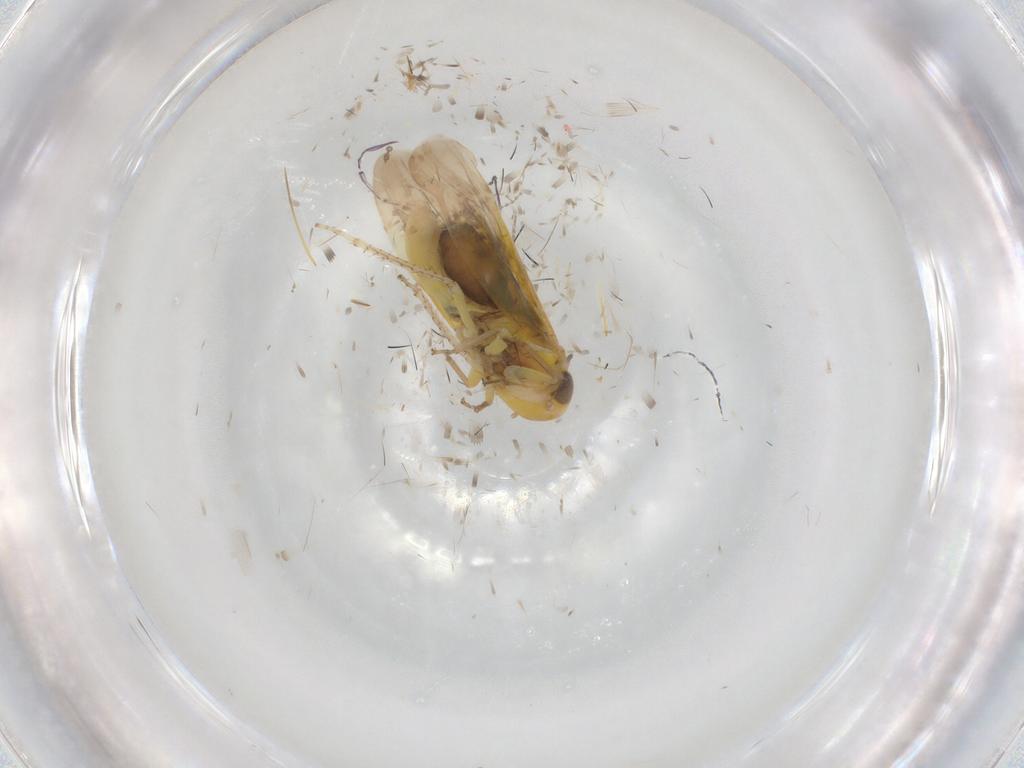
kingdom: Animalia
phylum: Arthropoda
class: Insecta
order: Hemiptera
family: Cicadellidae
